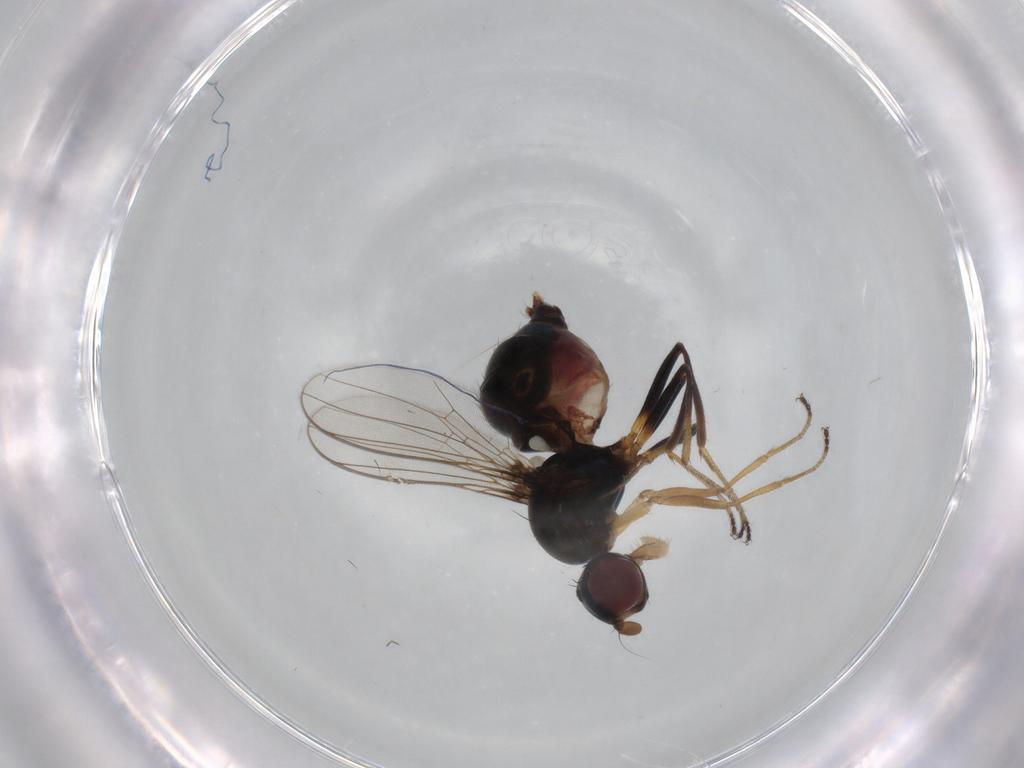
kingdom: Animalia
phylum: Arthropoda
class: Insecta
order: Diptera
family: Sepsidae
